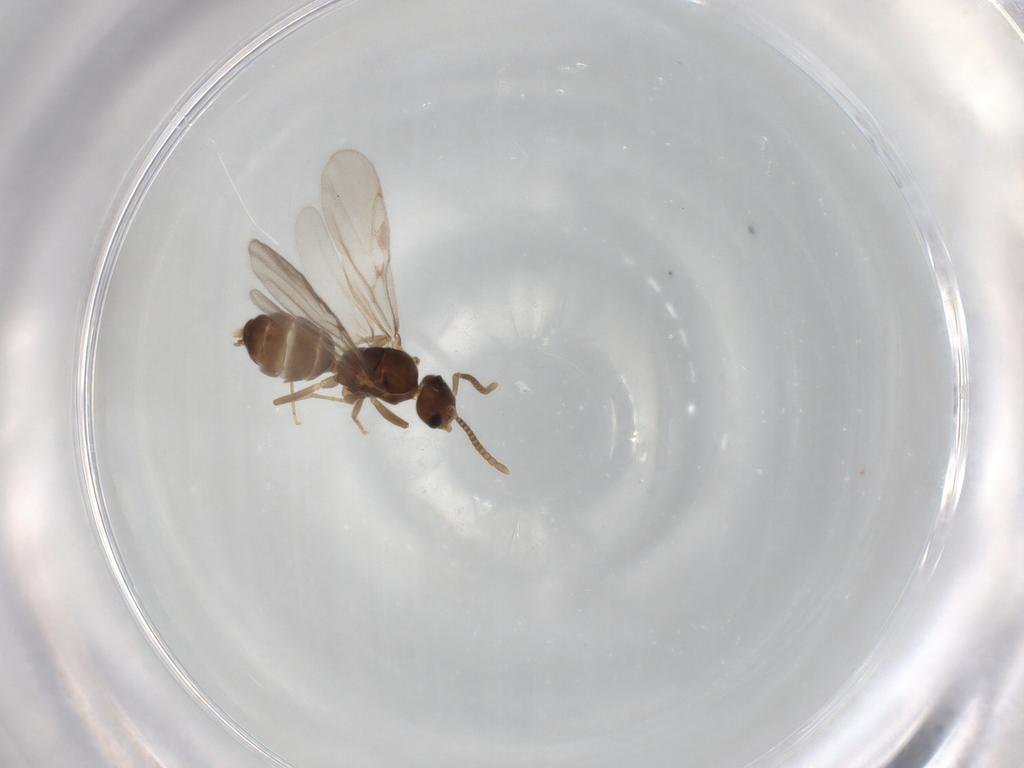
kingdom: Animalia
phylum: Arthropoda
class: Insecta
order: Hymenoptera
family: Formicidae
